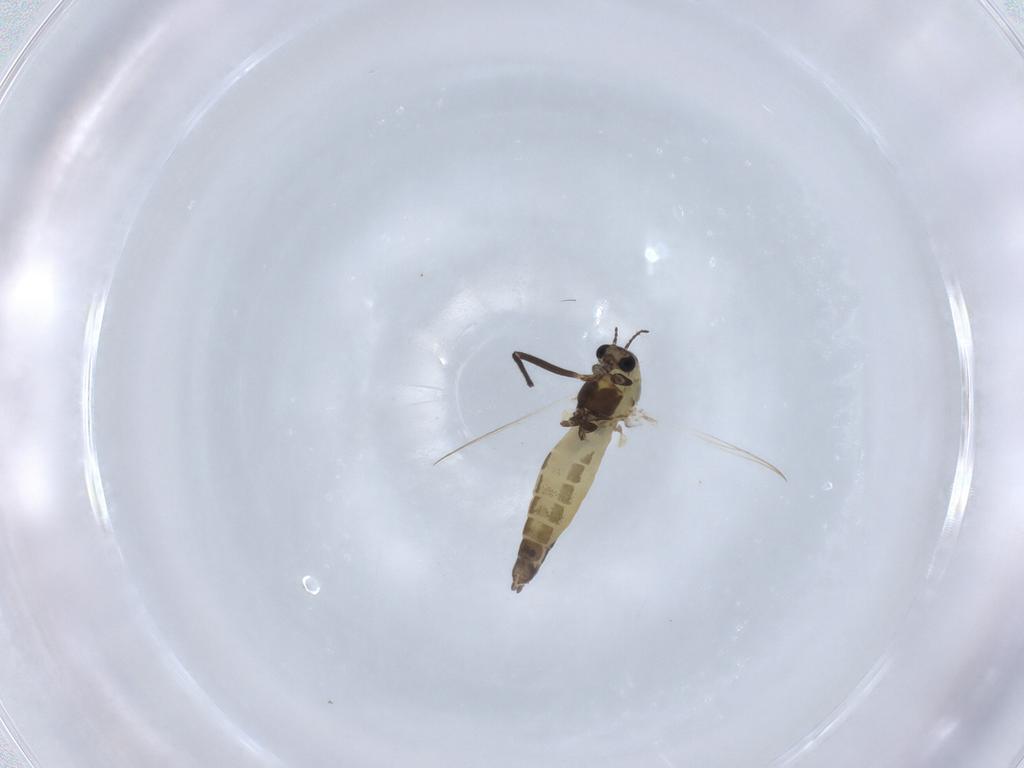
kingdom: Animalia
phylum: Arthropoda
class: Insecta
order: Diptera
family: Chironomidae
